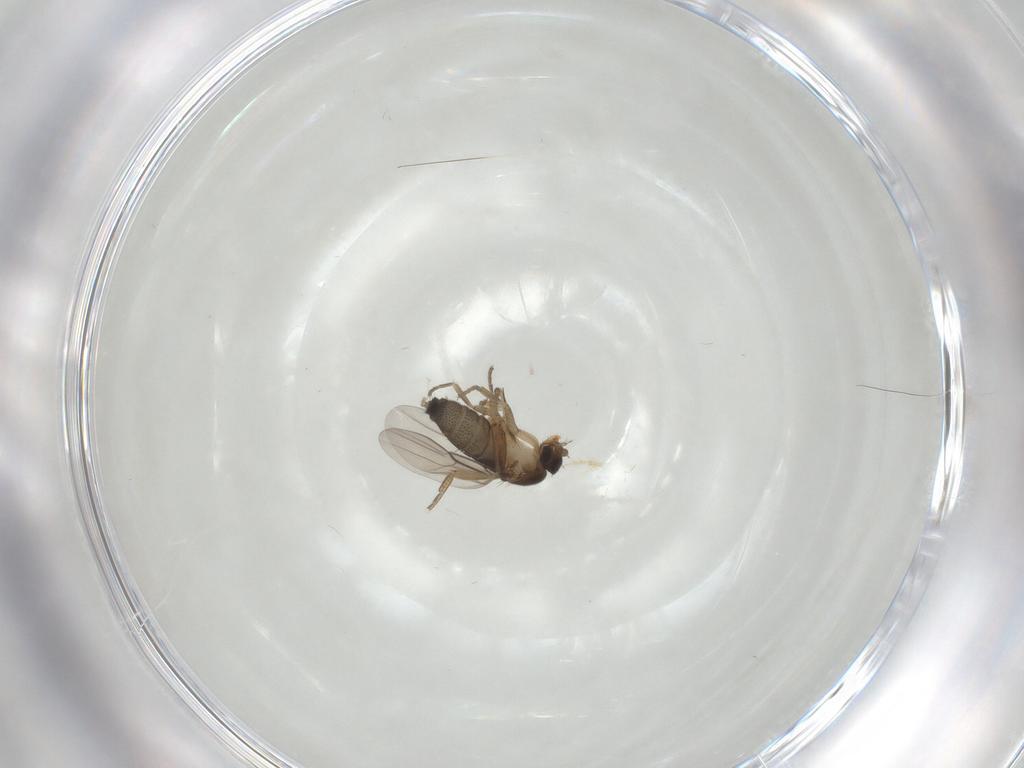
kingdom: Animalia
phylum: Arthropoda
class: Insecta
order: Diptera
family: Phoridae
